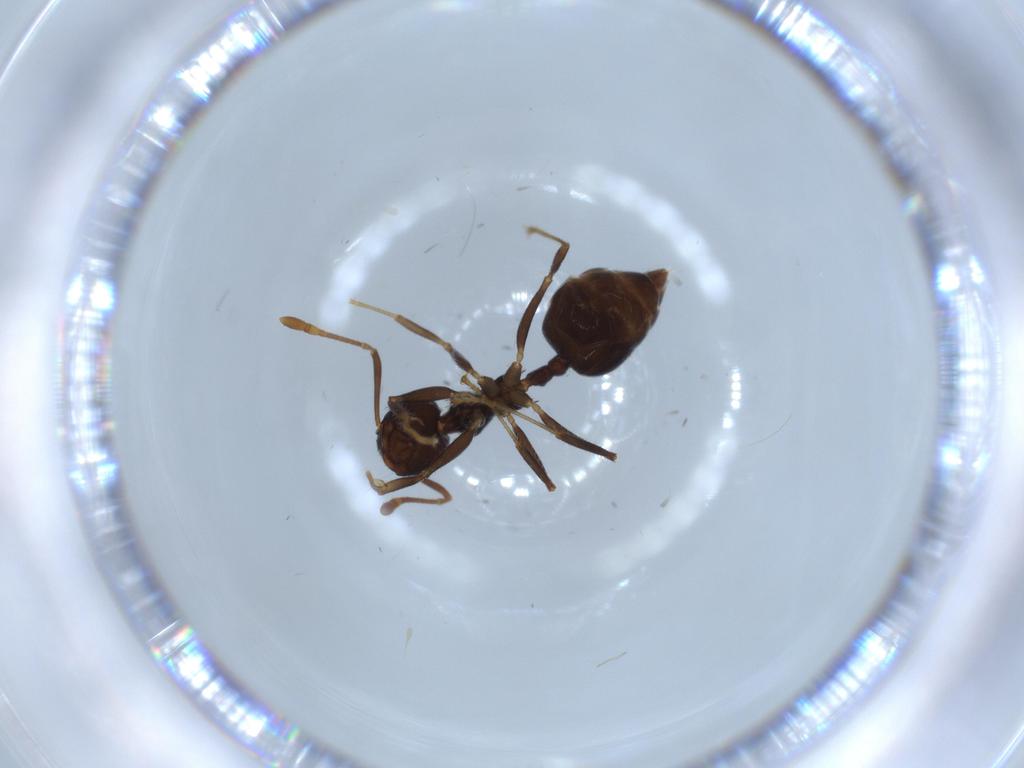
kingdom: Animalia
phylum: Arthropoda
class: Insecta
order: Hymenoptera
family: Formicidae
